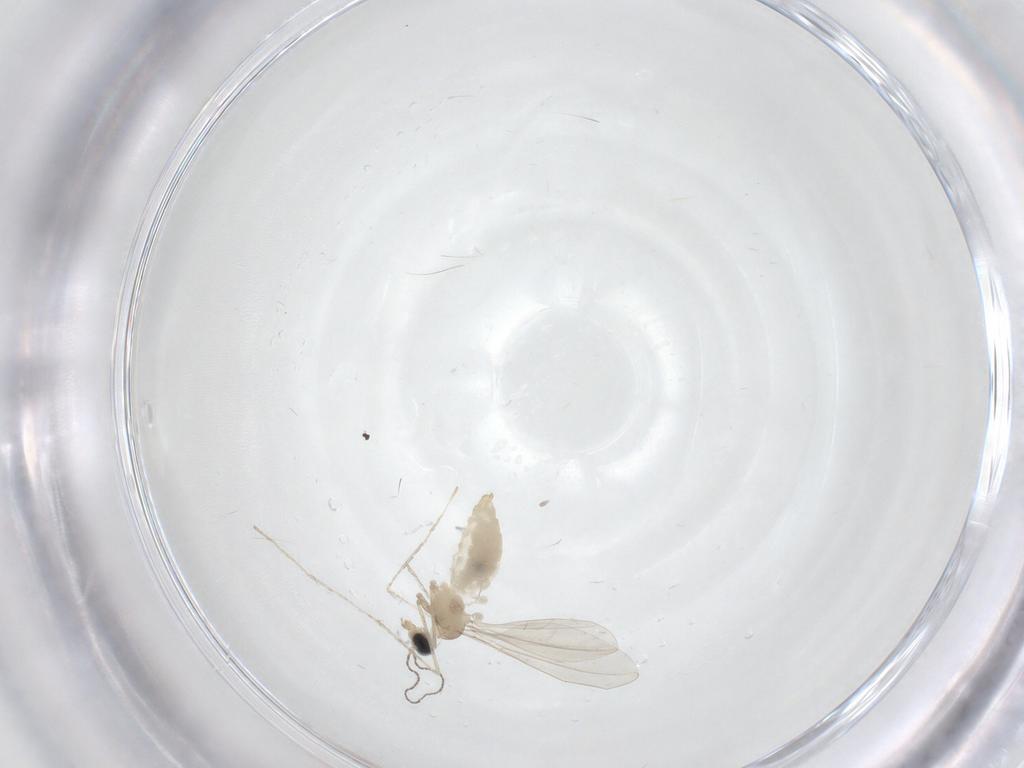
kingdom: Animalia
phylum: Arthropoda
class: Insecta
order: Diptera
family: Cecidomyiidae
